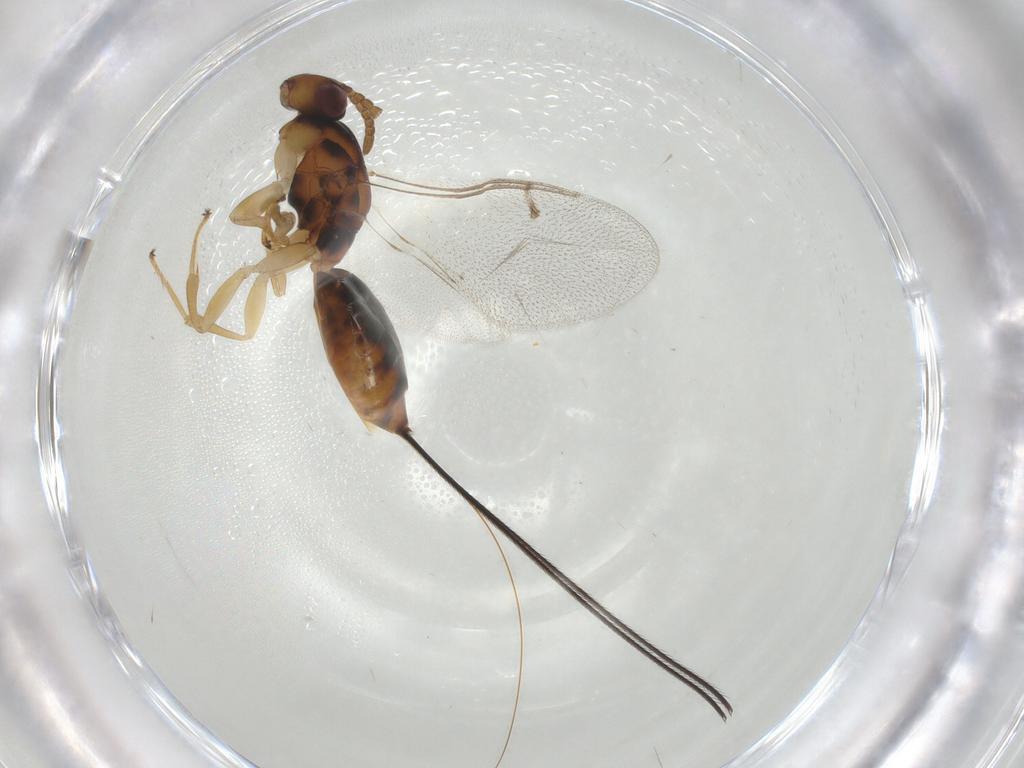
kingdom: Animalia
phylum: Arthropoda
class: Insecta
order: Hymenoptera
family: Pteromalidae
